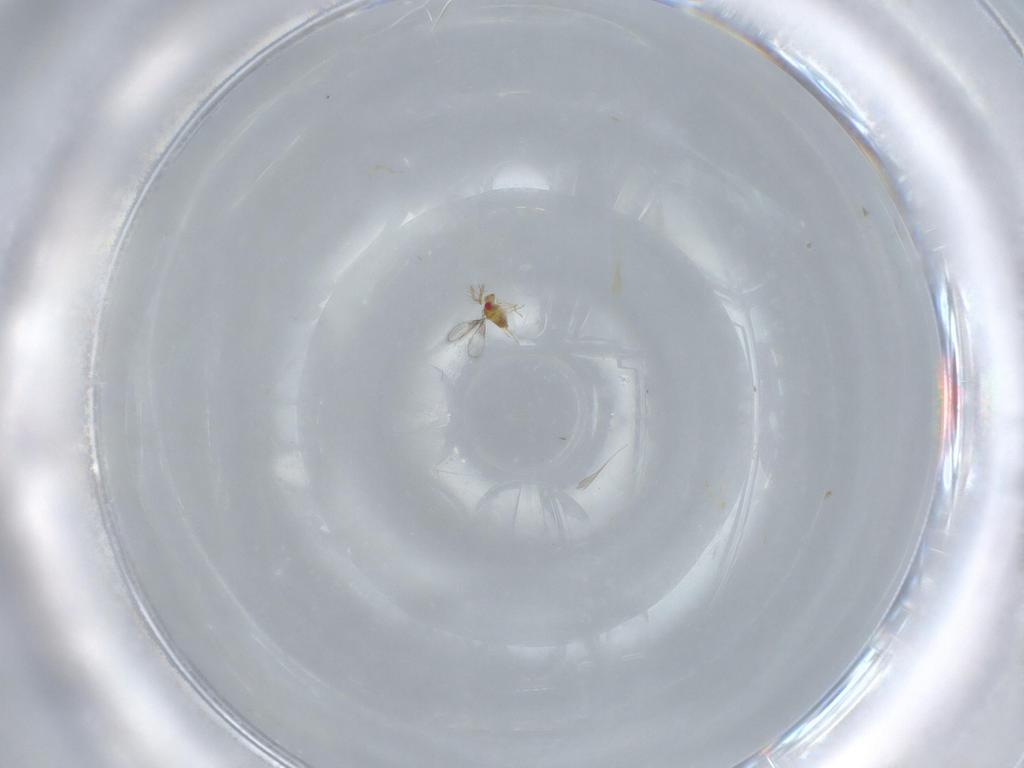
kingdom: Animalia
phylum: Arthropoda
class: Insecta
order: Hymenoptera
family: Trichogrammatidae
